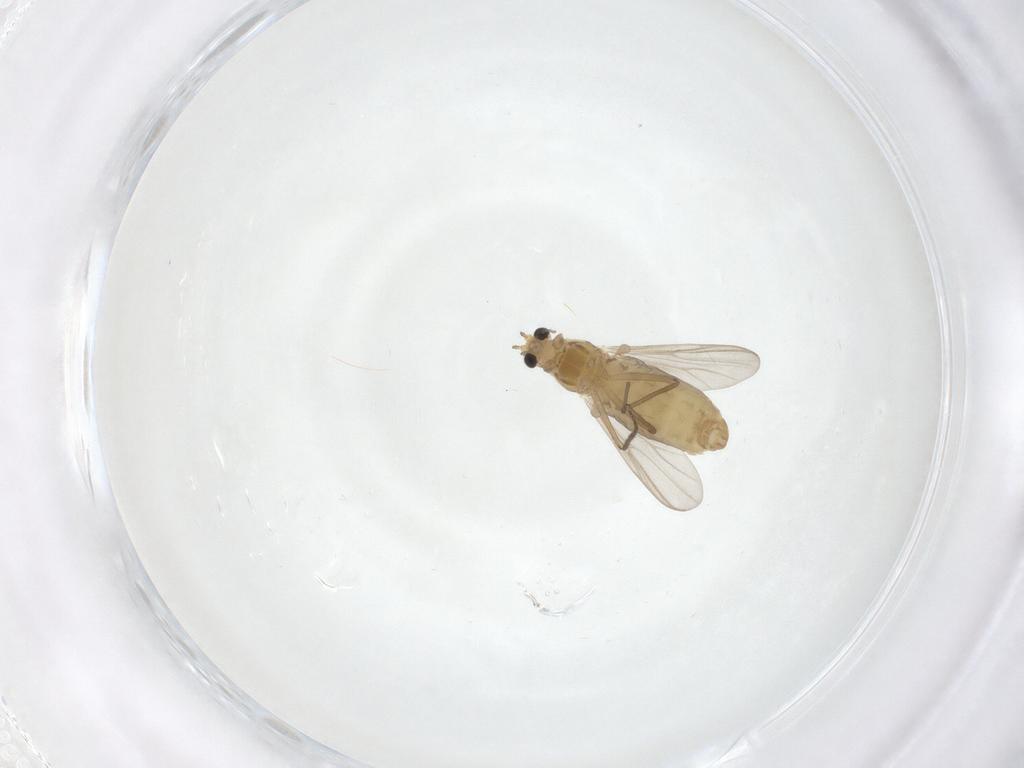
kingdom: Animalia
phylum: Arthropoda
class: Insecta
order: Diptera
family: Chironomidae
